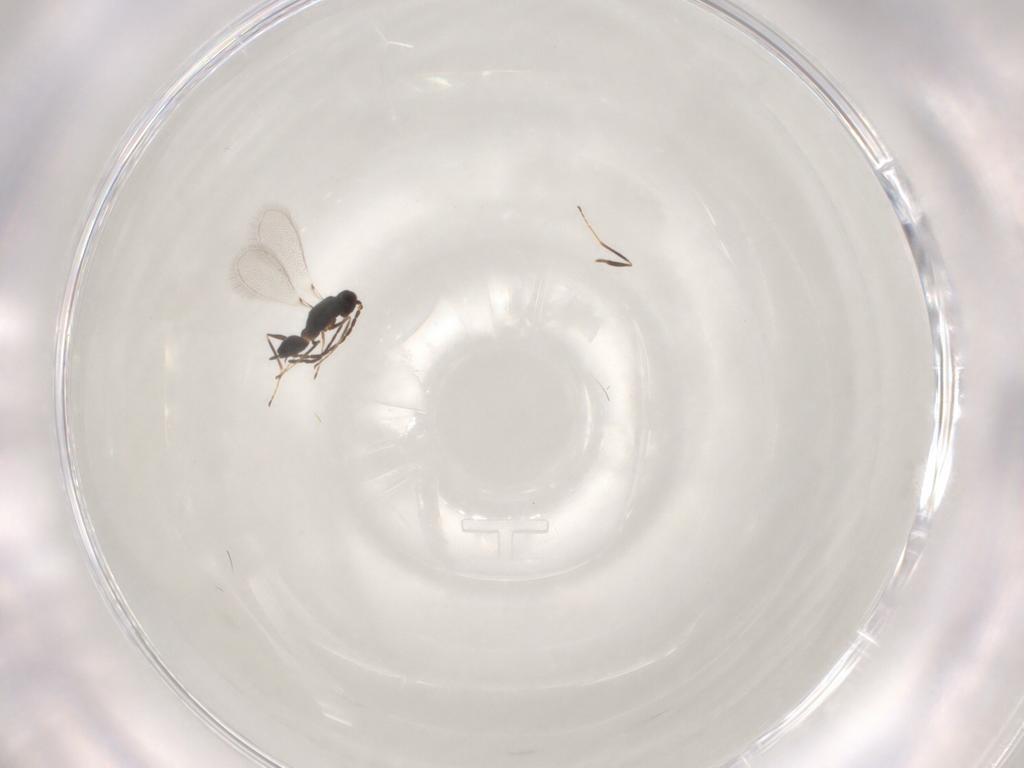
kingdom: Animalia
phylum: Arthropoda
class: Insecta
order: Hymenoptera
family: Mymaridae
